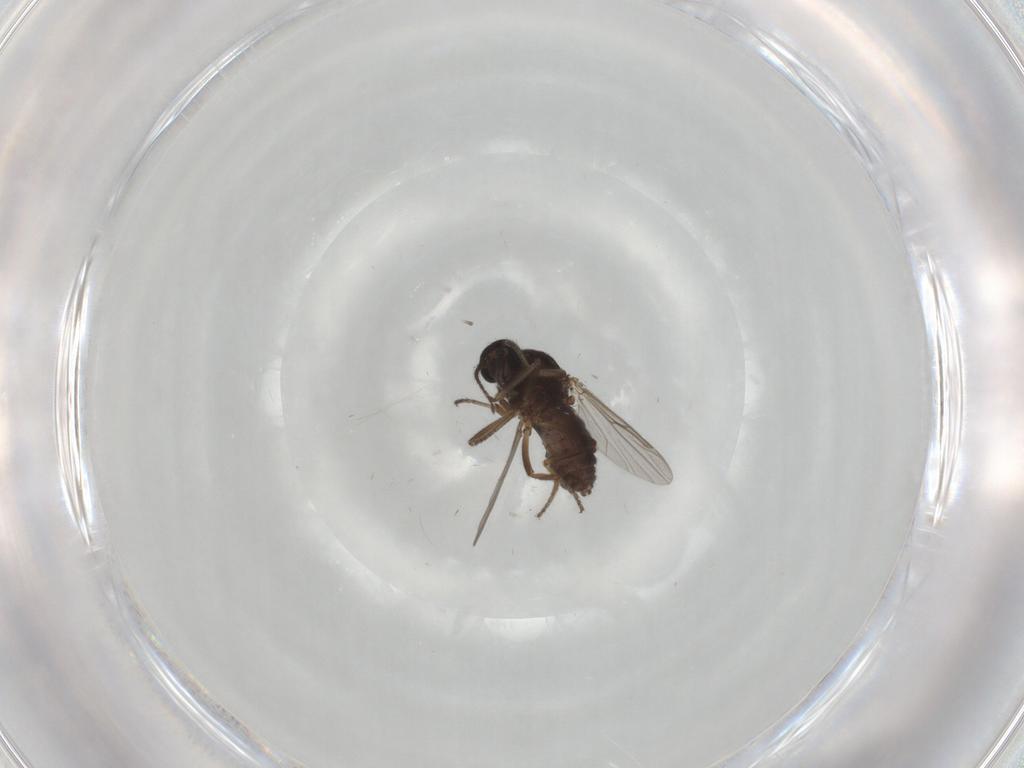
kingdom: Animalia
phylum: Arthropoda
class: Insecta
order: Diptera
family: Ceratopogonidae
